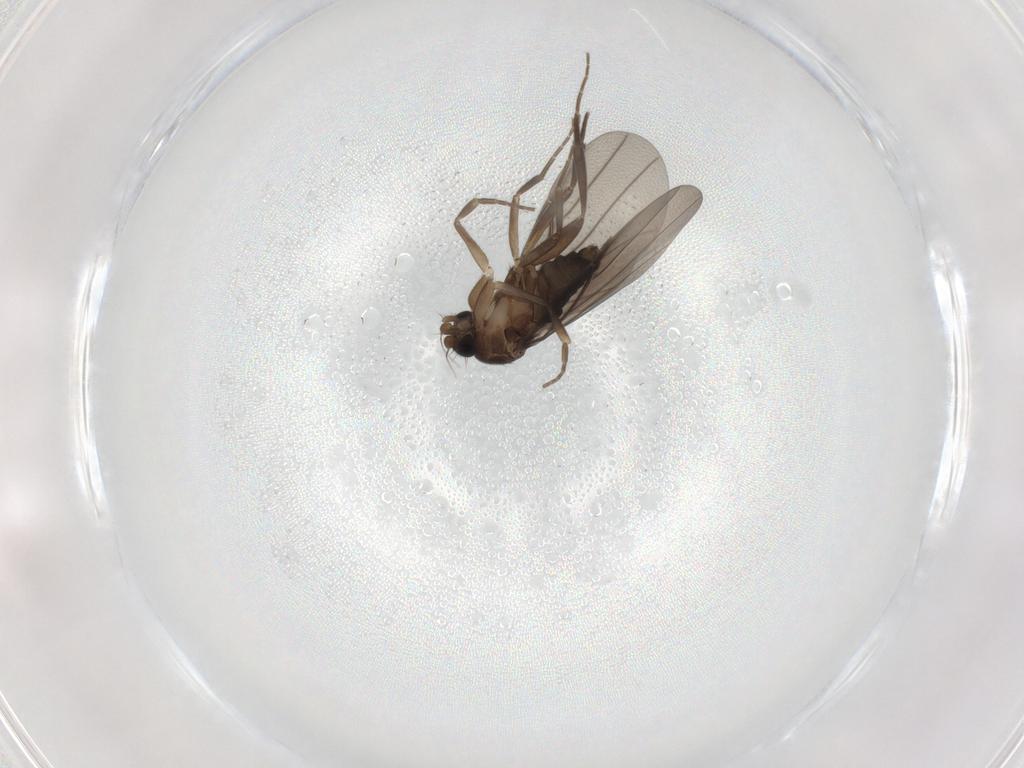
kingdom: Animalia
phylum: Arthropoda
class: Insecta
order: Diptera
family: Phoridae
